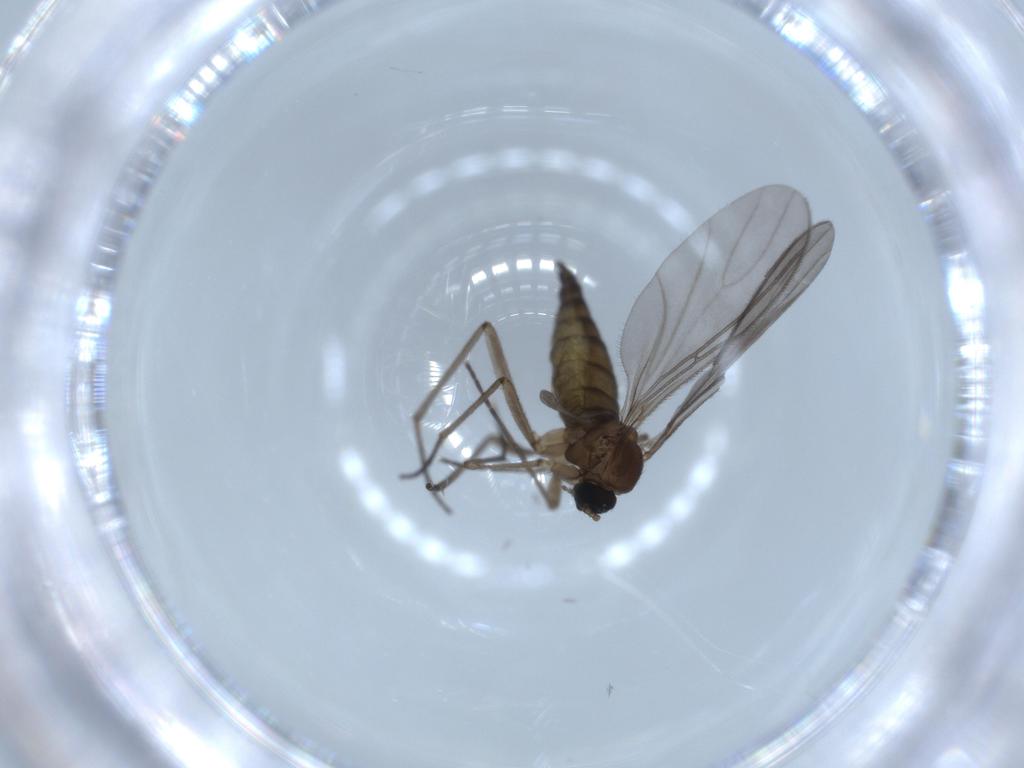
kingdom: Animalia
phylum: Arthropoda
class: Insecta
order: Diptera
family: Sciaridae
